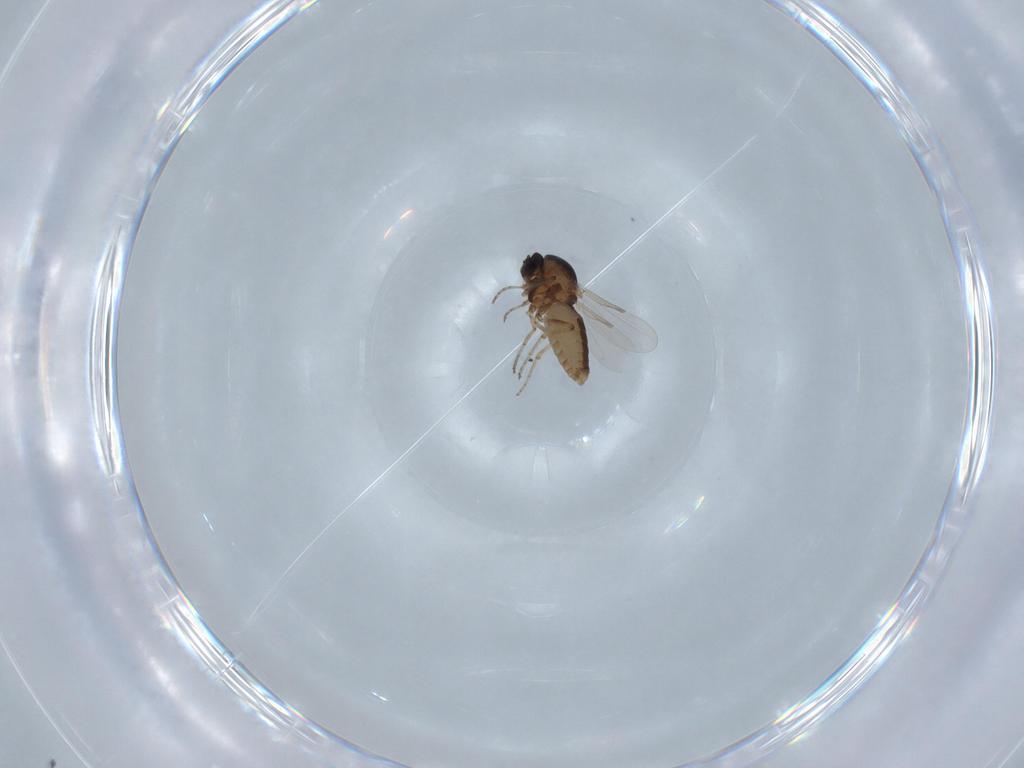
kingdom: Animalia
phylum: Arthropoda
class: Insecta
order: Diptera
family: Ceratopogonidae
